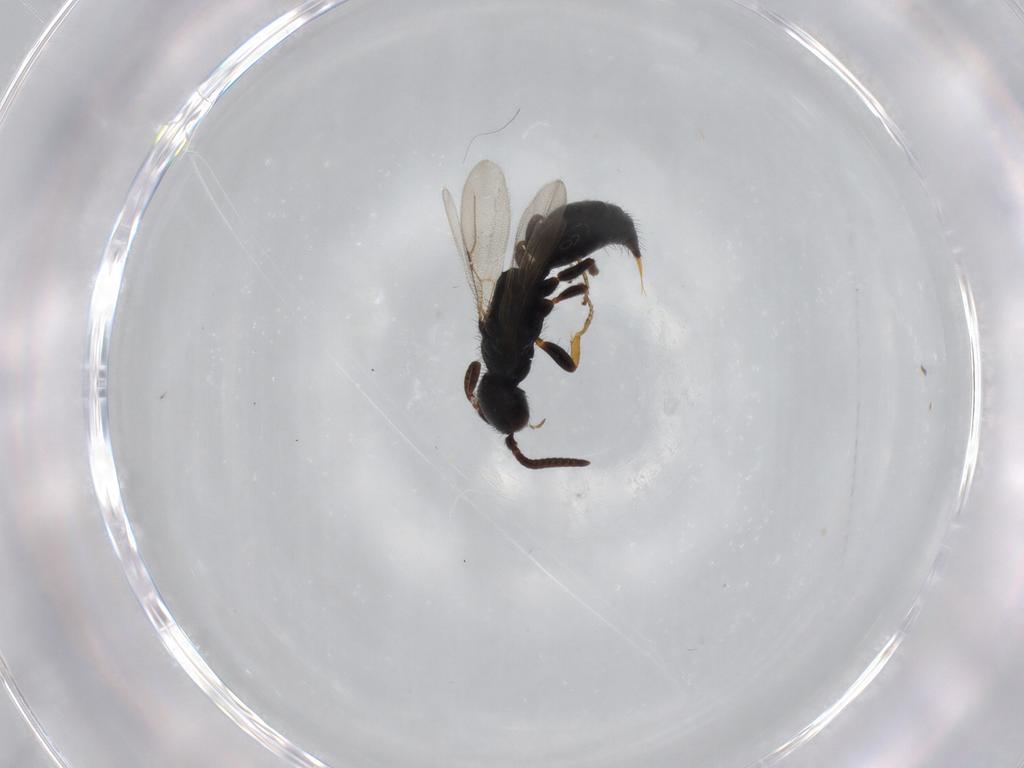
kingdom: Animalia
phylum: Arthropoda
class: Insecta
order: Hymenoptera
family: Bethylidae
